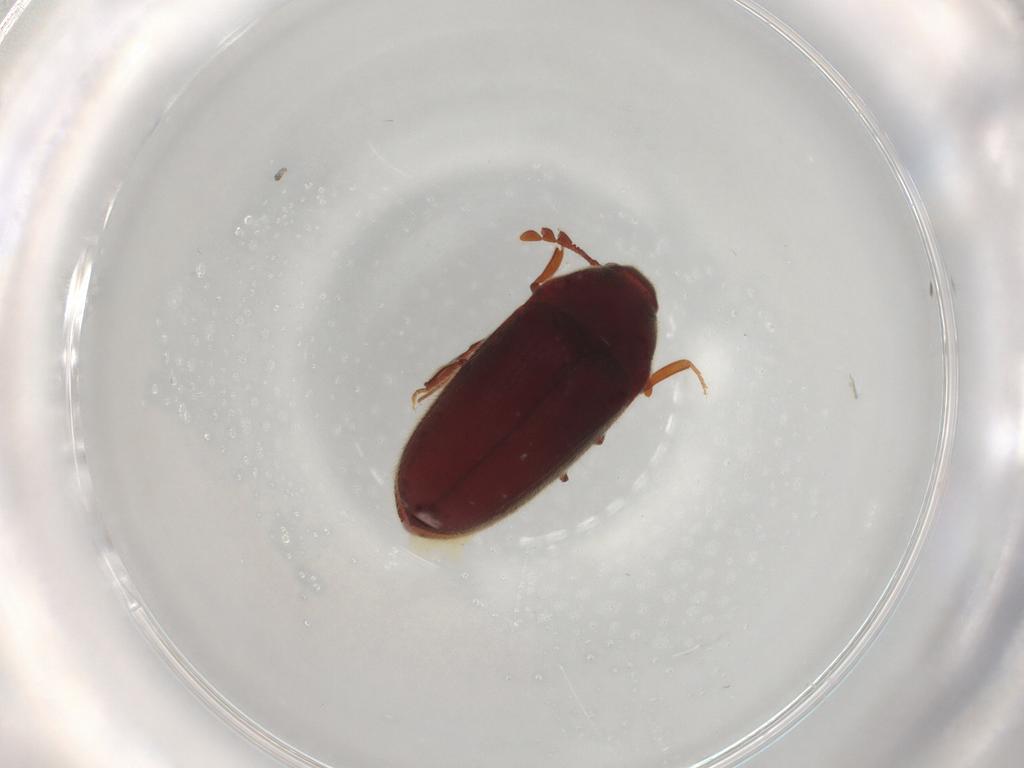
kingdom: Animalia
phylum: Arthropoda
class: Insecta
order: Coleoptera
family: Throscidae
